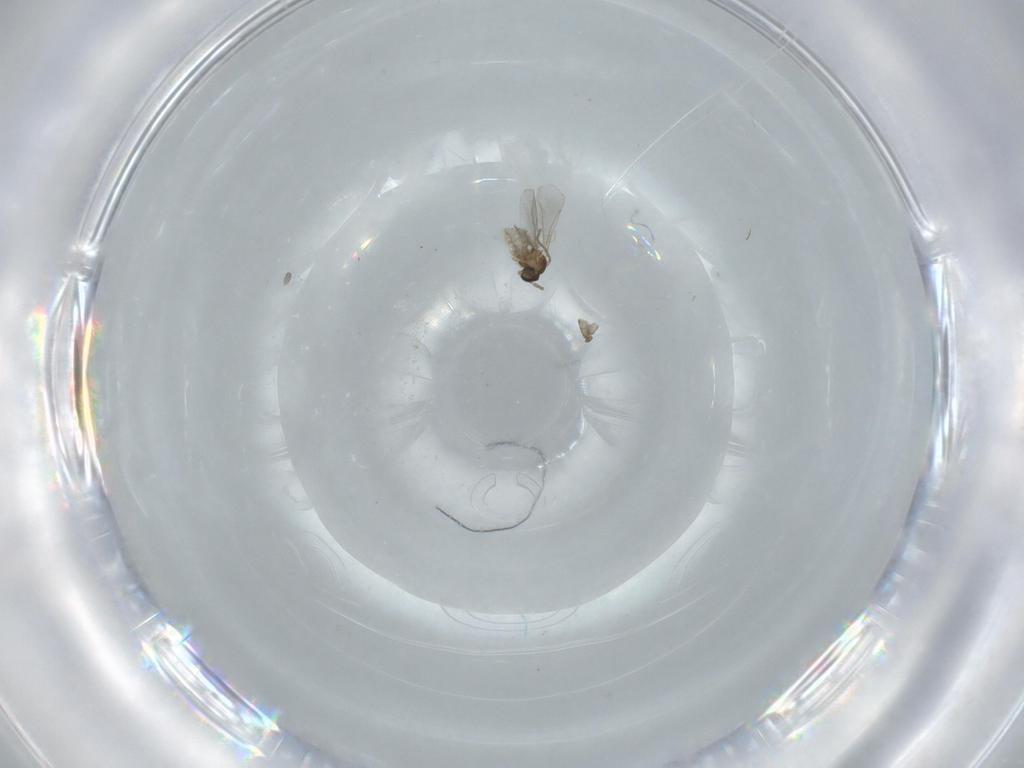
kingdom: Animalia
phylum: Arthropoda
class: Insecta
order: Diptera
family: Cecidomyiidae
